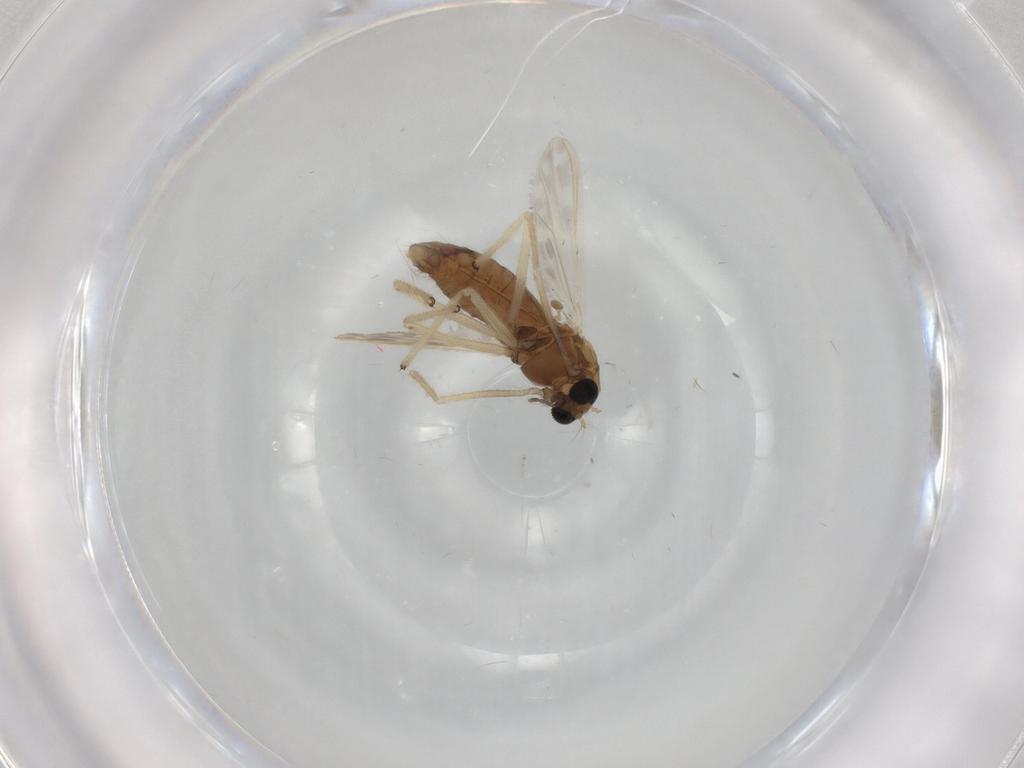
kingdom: Animalia
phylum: Arthropoda
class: Insecta
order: Diptera
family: Chironomidae
